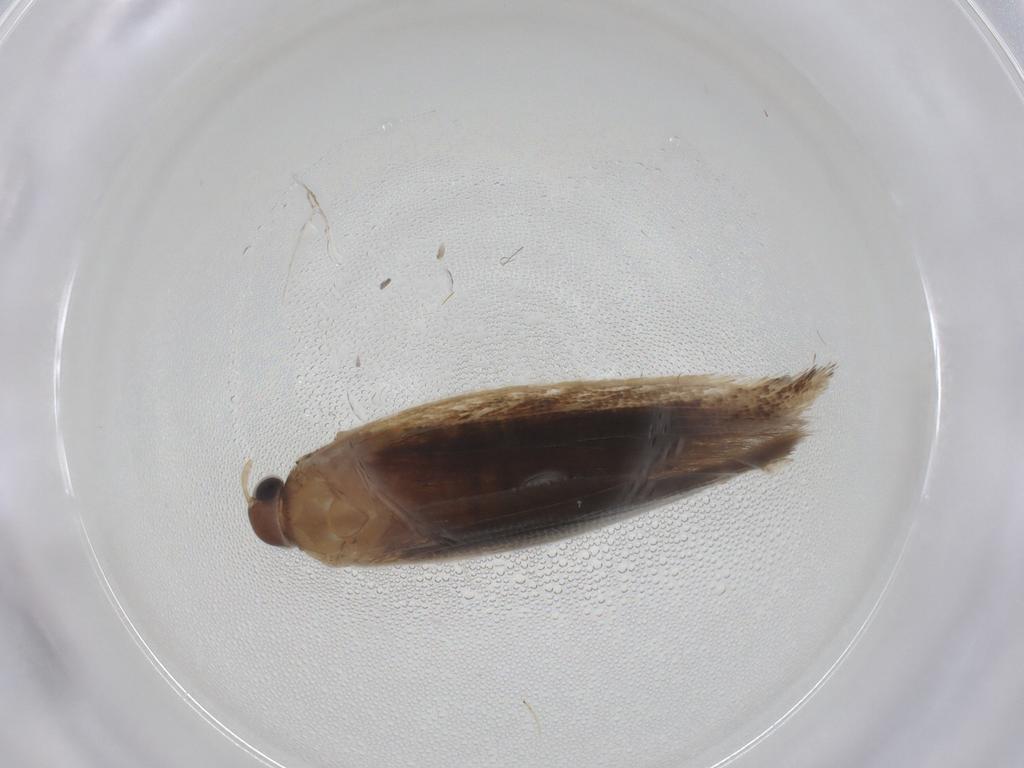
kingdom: Animalia
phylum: Arthropoda
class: Insecta
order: Lepidoptera
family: Gelechiidae
